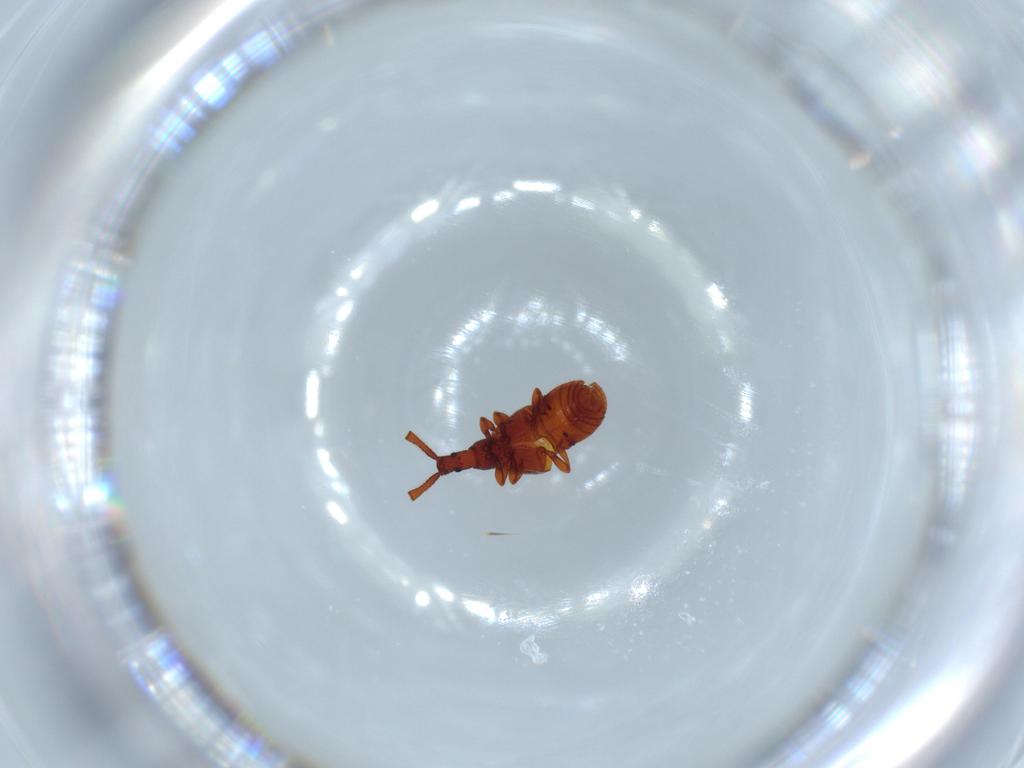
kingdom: Animalia
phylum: Arthropoda
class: Insecta
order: Coleoptera
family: Staphylinidae
